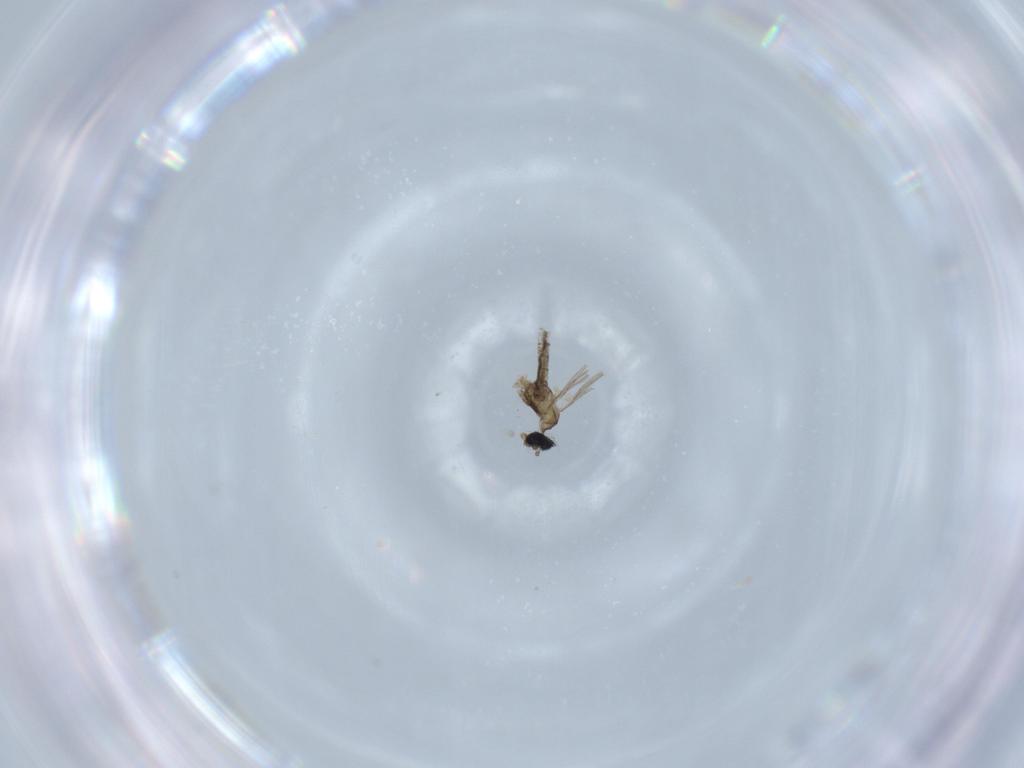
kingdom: Animalia
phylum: Arthropoda
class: Insecta
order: Diptera
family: Cecidomyiidae
